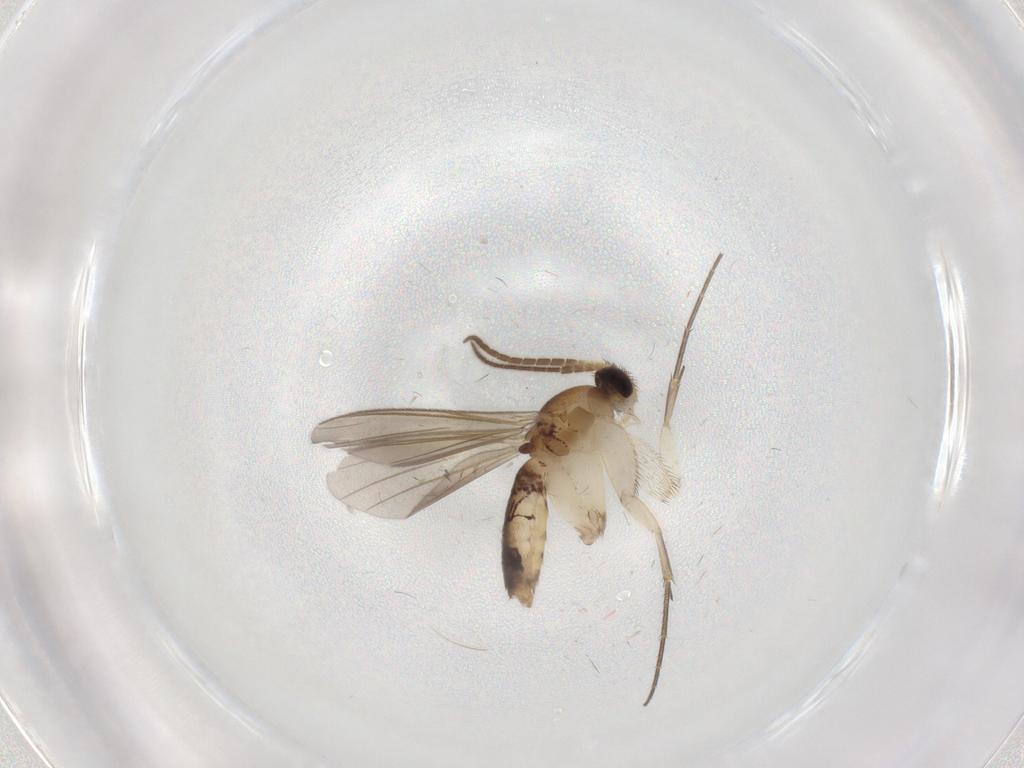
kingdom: Animalia
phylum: Arthropoda
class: Insecta
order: Diptera
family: Mycetophilidae
